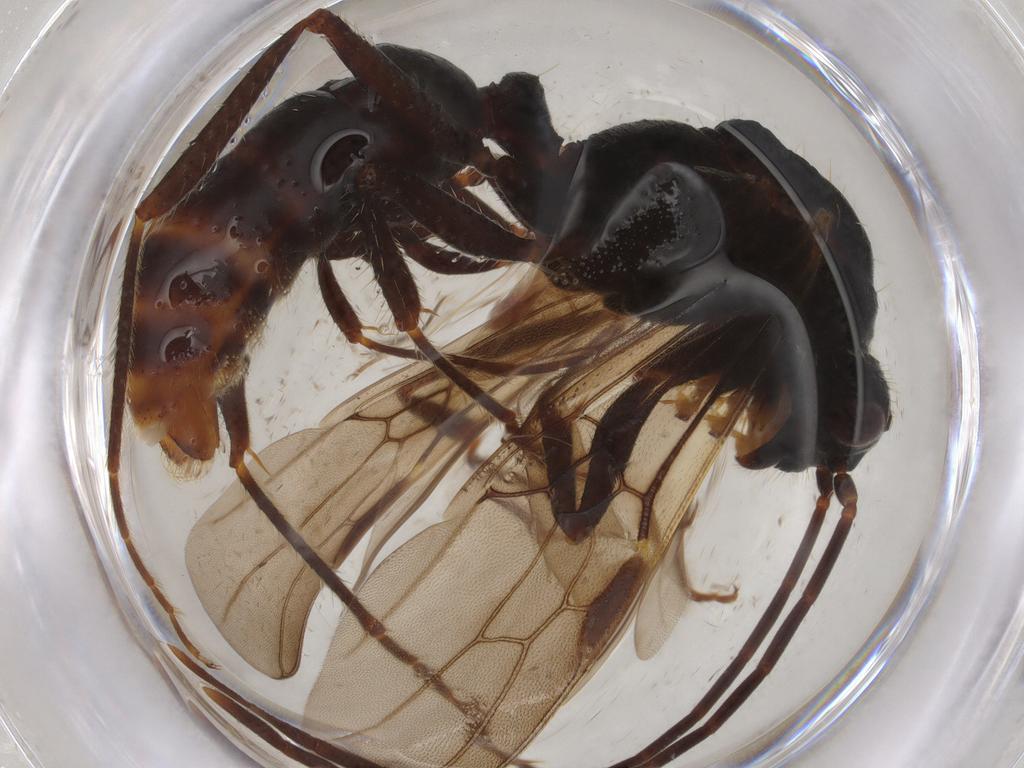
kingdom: Animalia
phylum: Arthropoda
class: Insecta
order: Hymenoptera
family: Formicidae
